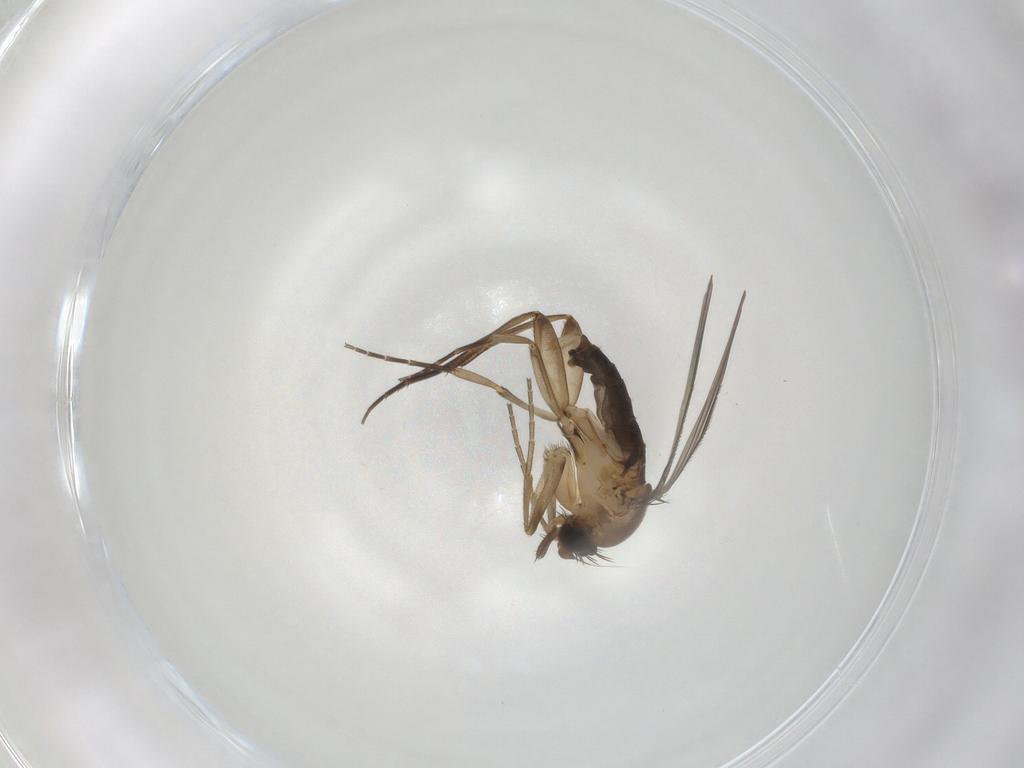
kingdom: Animalia
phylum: Arthropoda
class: Insecta
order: Diptera
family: Phoridae
